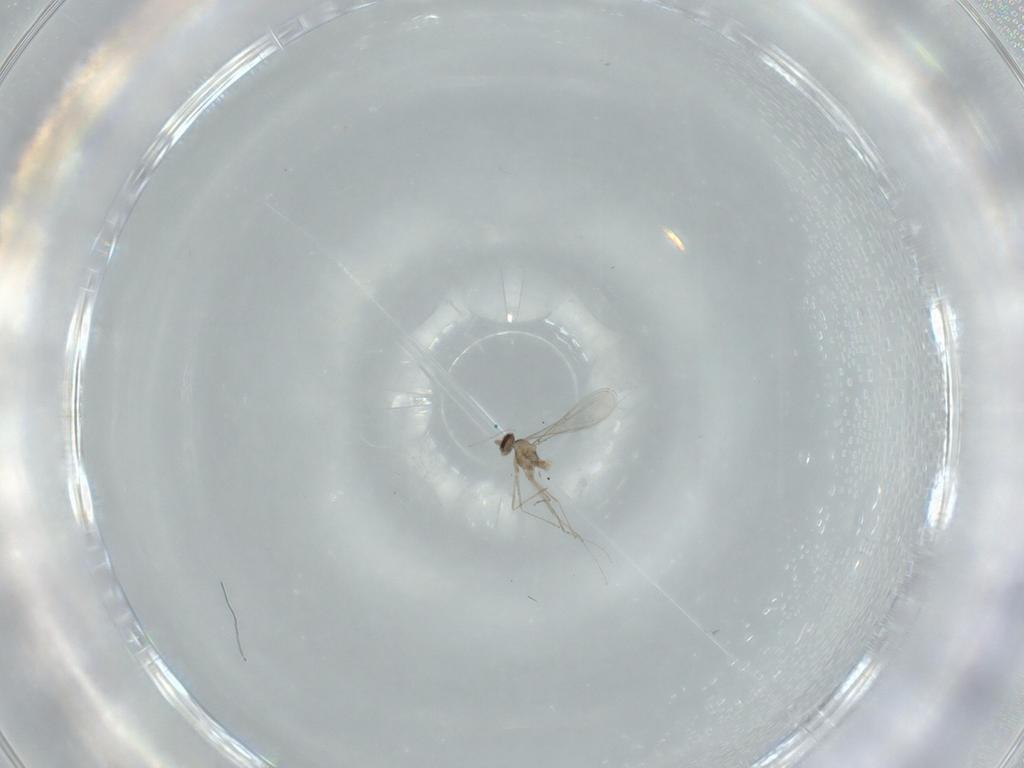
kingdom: Animalia
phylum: Arthropoda
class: Insecta
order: Diptera
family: Cecidomyiidae
